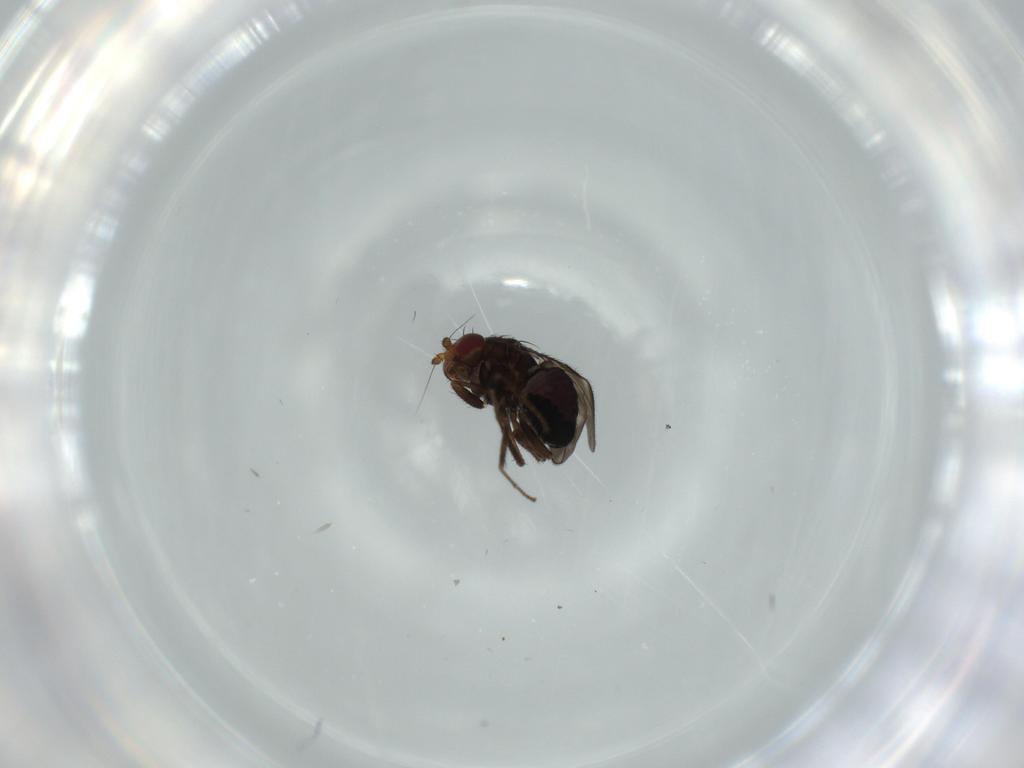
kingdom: Animalia
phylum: Arthropoda
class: Insecta
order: Diptera
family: Sphaeroceridae
